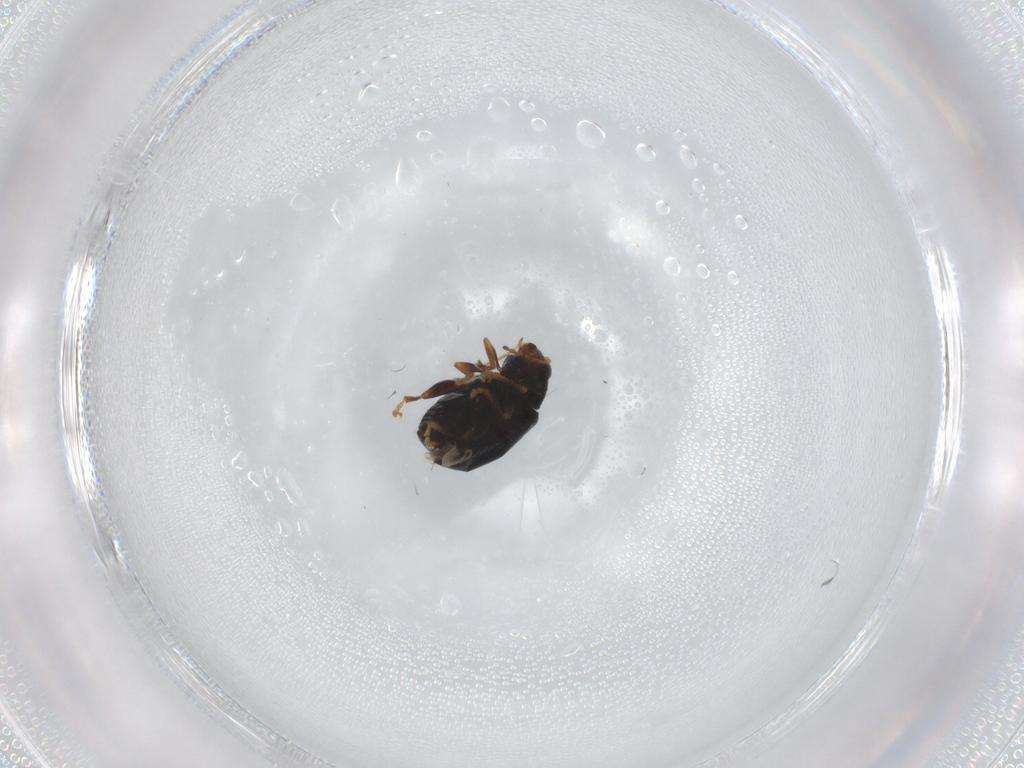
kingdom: Animalia
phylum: Arthropoda
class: Insecta
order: Coleoptera
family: Chrysomelidae
